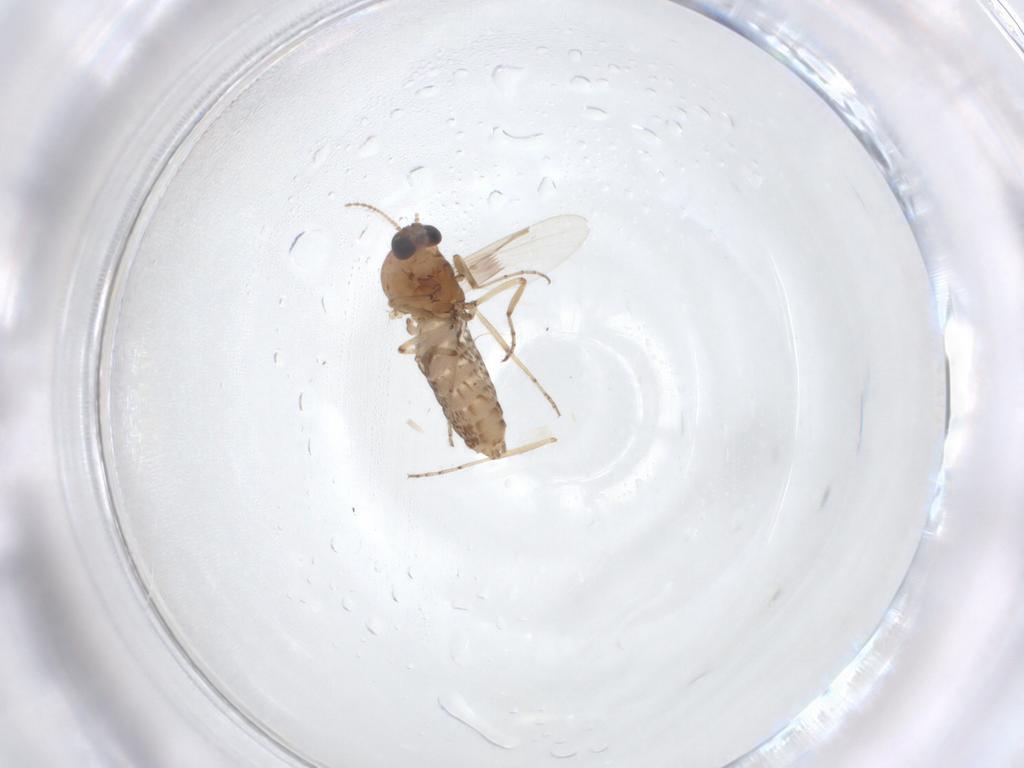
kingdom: Animalia
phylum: Arthropoda
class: Insecta
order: Diptera
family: Ceratopogonidae
